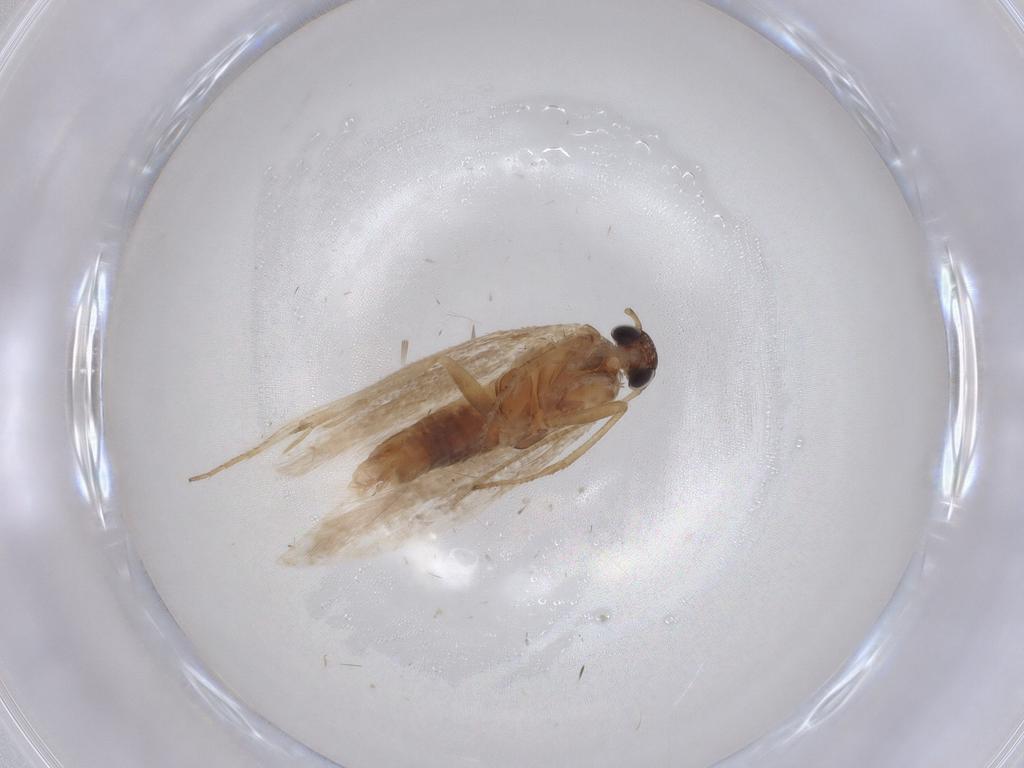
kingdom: Animalia
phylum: Arthropoda
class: Insecta
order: Lepidoptera
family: Gelechiidae
